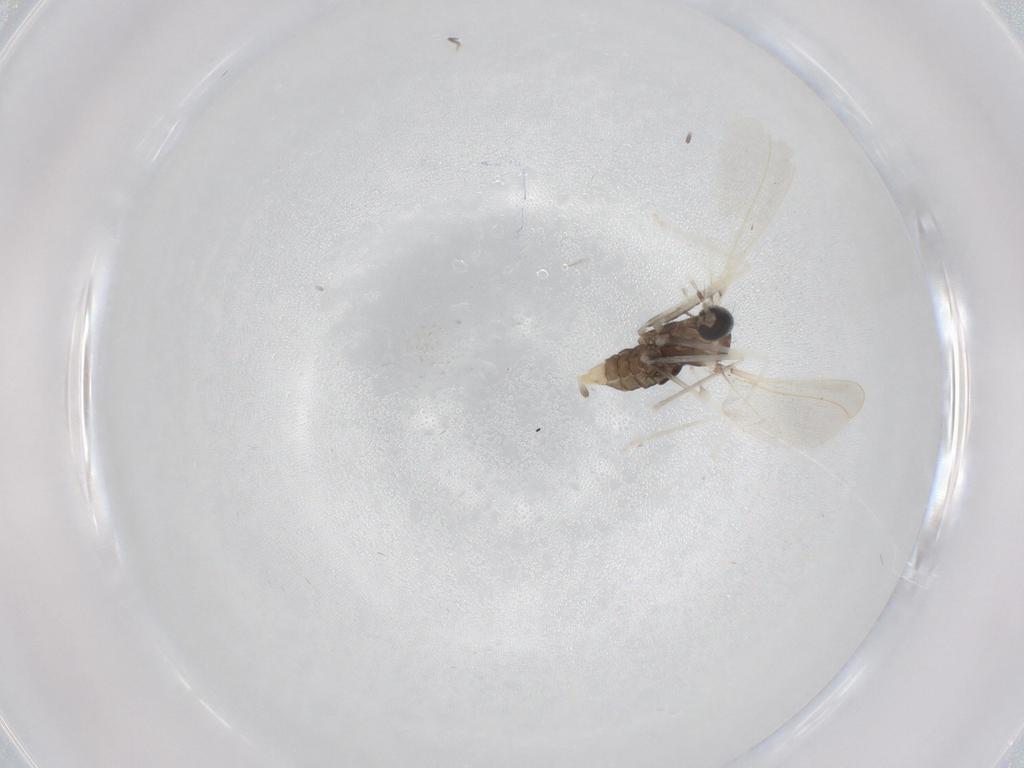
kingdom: Animalia
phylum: Arthropoda
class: Insecta
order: Diptera
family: Cecidomyiidae
